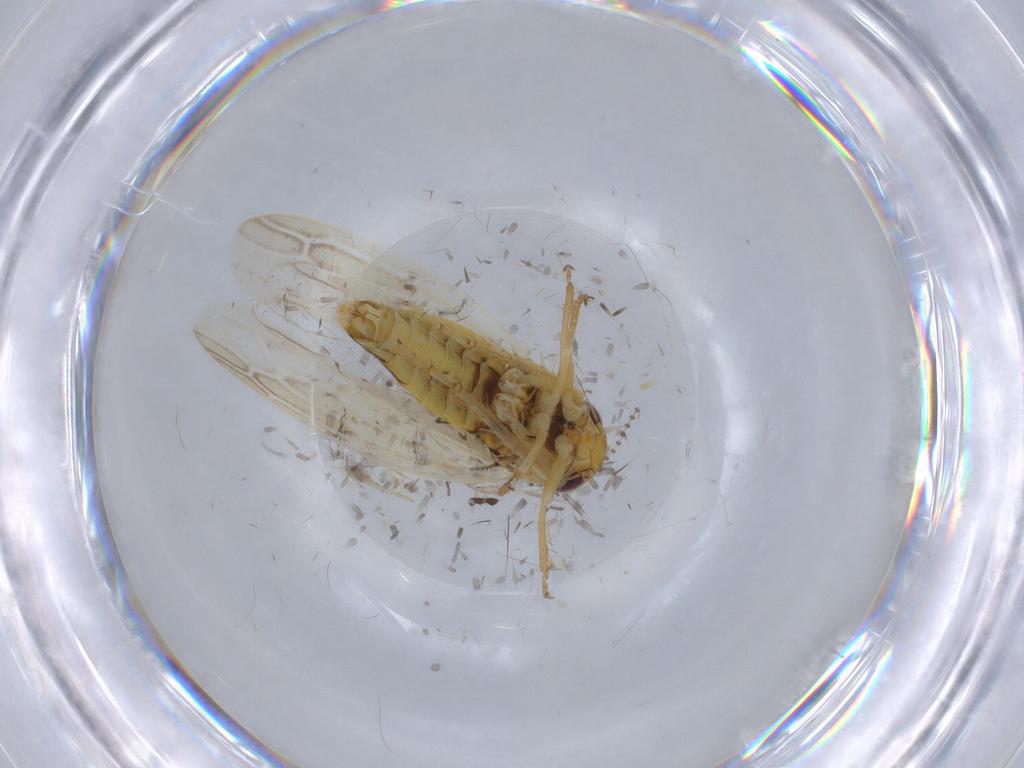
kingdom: Animalia
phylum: Arthropoda
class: Insecta
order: Hemiptera
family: Cicadellidae
